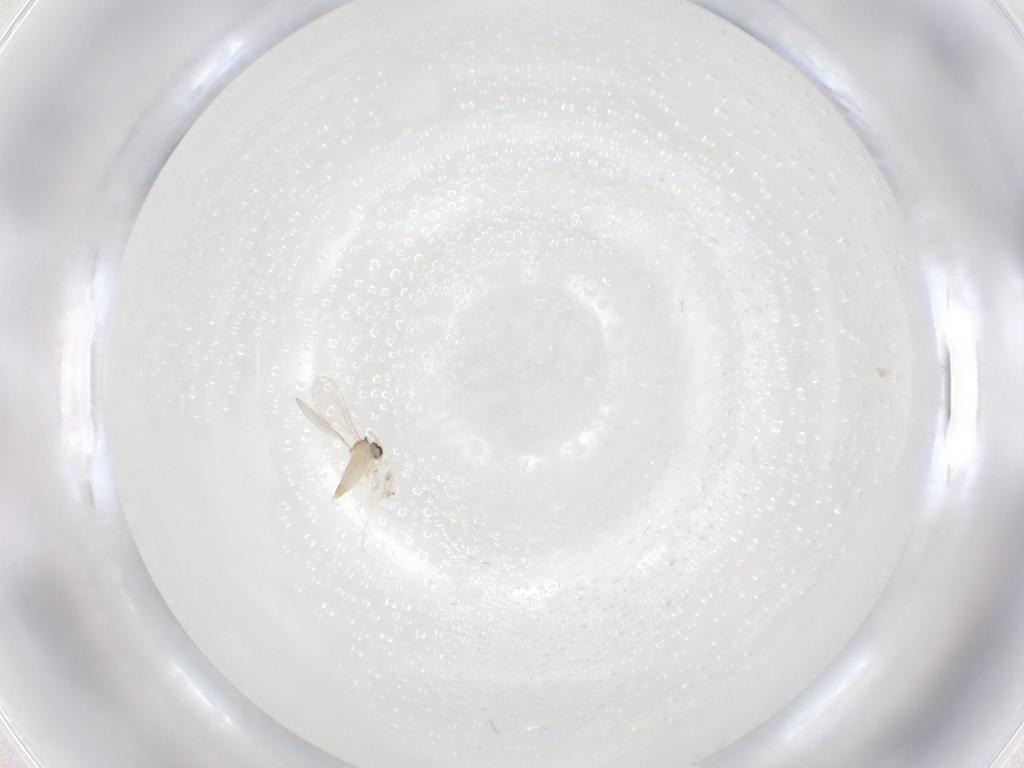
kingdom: Animalia
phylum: Arthropoda
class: Insecta
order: Diptera
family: Cecidomyiidae
